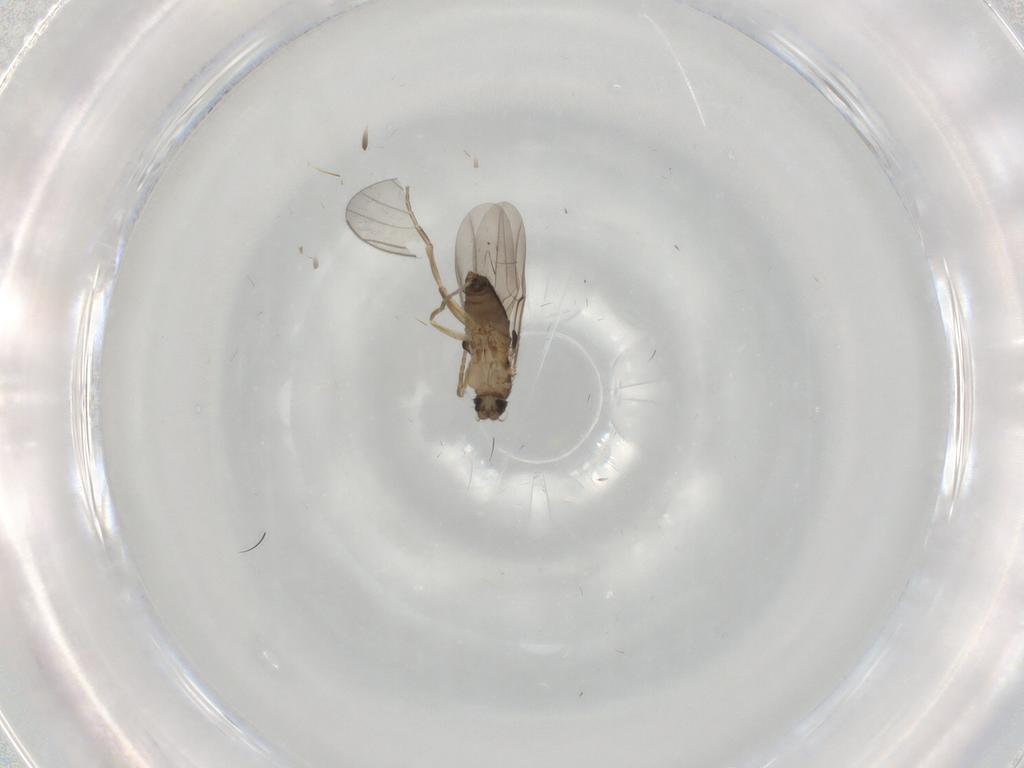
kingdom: Animalia
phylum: Arthropoda
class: Insecta
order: Diptera
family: Phoridae
